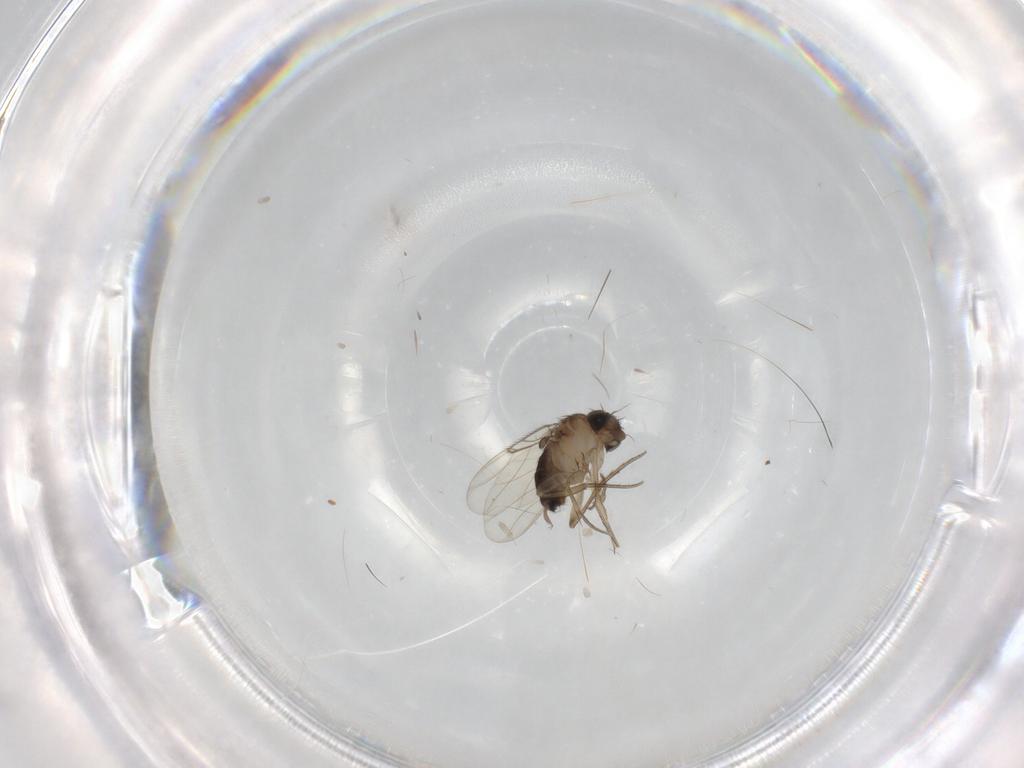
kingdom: Animalia
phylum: Arthropoda
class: Insecta
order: Diptera
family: Phoridae
